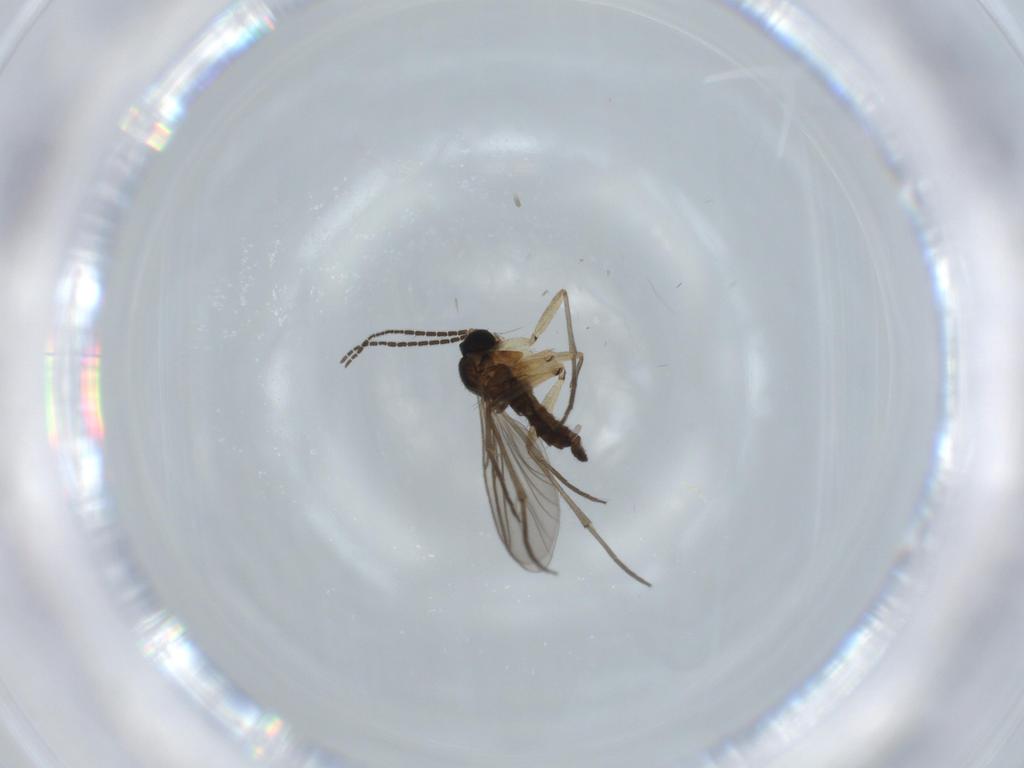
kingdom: Animalia
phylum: Arthropoda
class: Insecta
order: Diptera
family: Sciaridae
